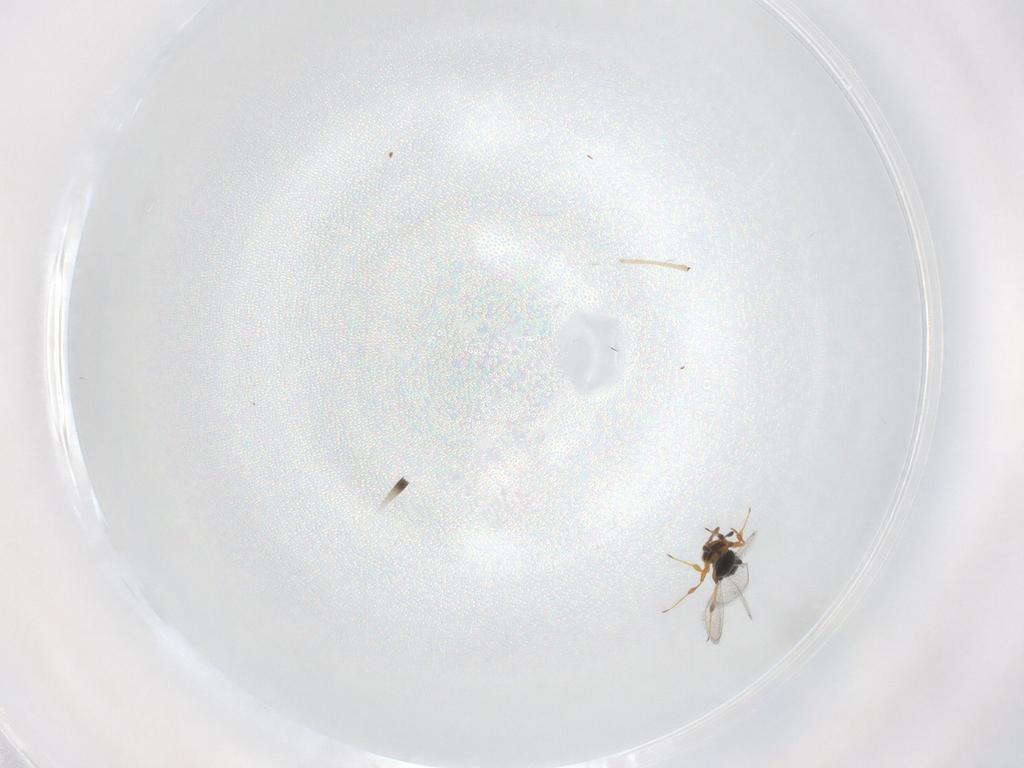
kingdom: Animalia
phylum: Arthropoda
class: Insecta
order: Hymenoptera
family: Platygastridae
